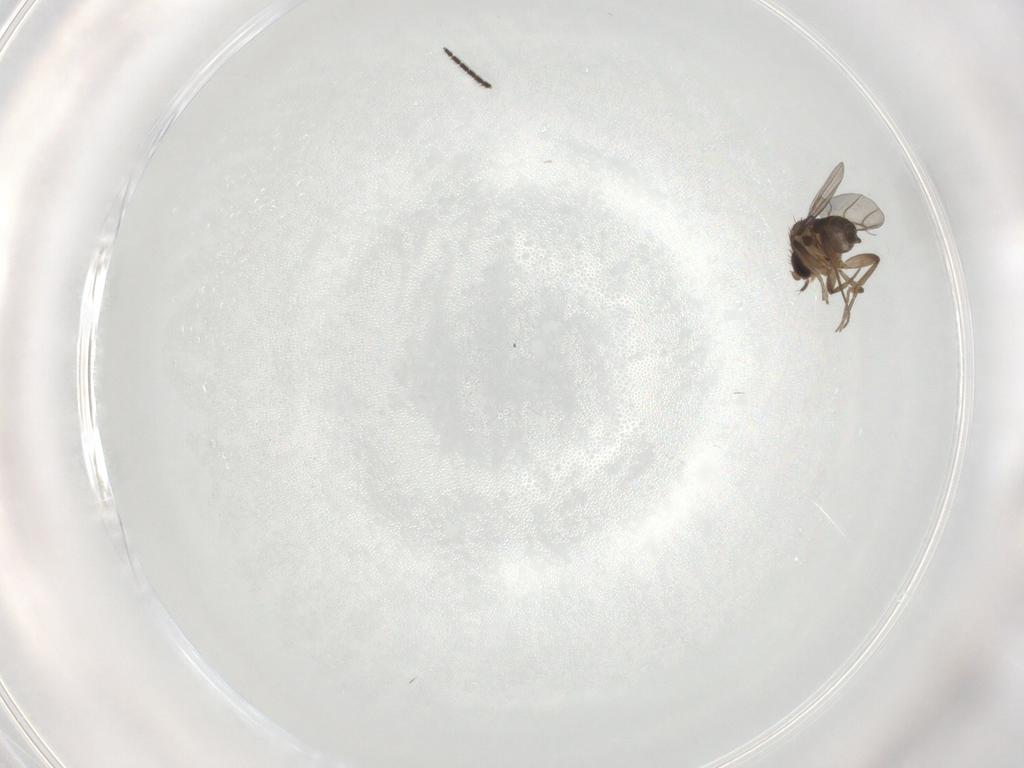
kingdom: Animalia
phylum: Arthropoda
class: Insecta
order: Diptera
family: Sciaridae
